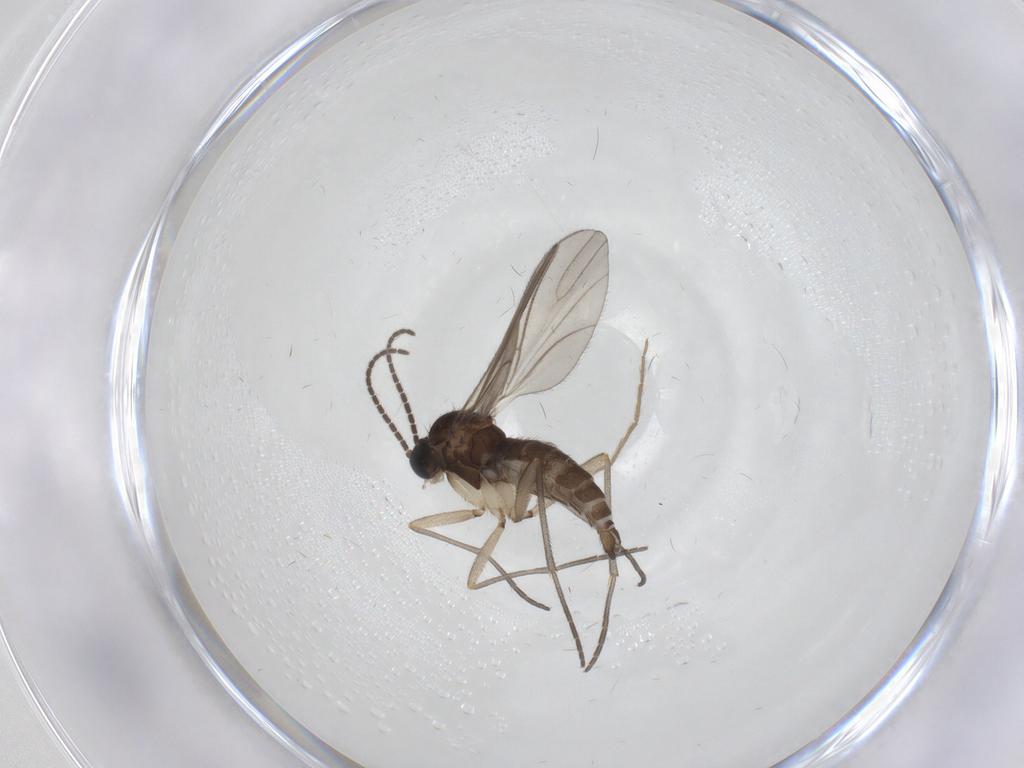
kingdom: Animalia
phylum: Arthropoda
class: Insecta
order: Diptera
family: Sciaridae
